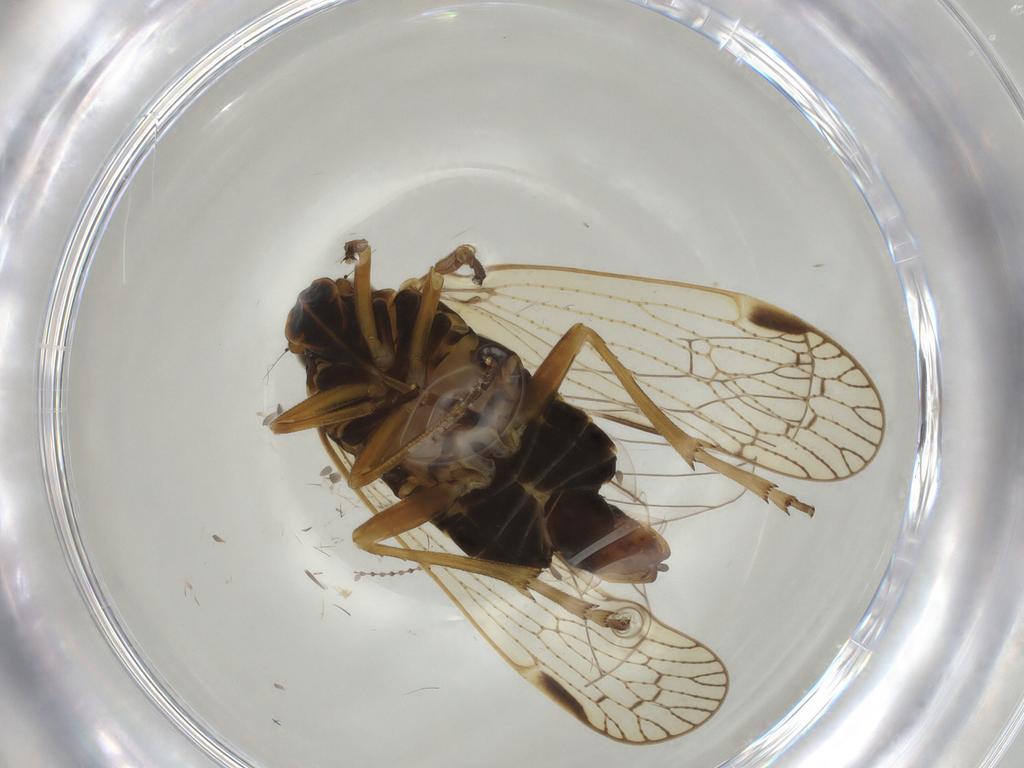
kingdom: Animalia
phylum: Arthropoda
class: Insecta
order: Hemiptera
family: Cixiidae
